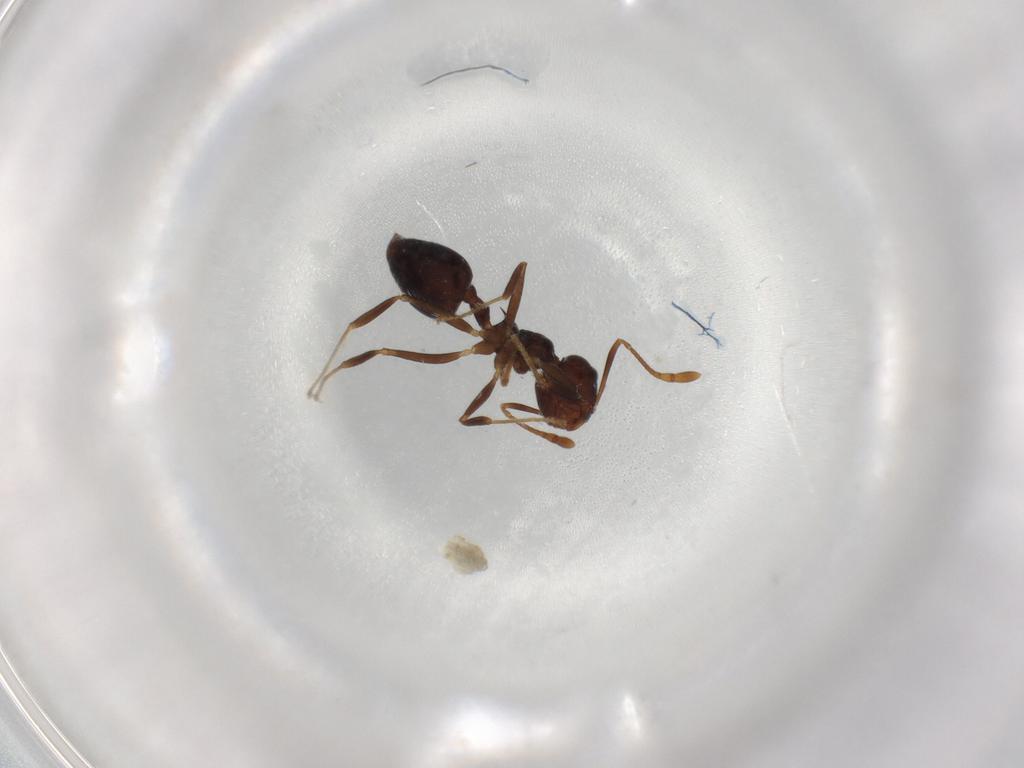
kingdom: Animalia
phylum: Arthropoda
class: Insecta
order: Hymenoptera
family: Formicidae
